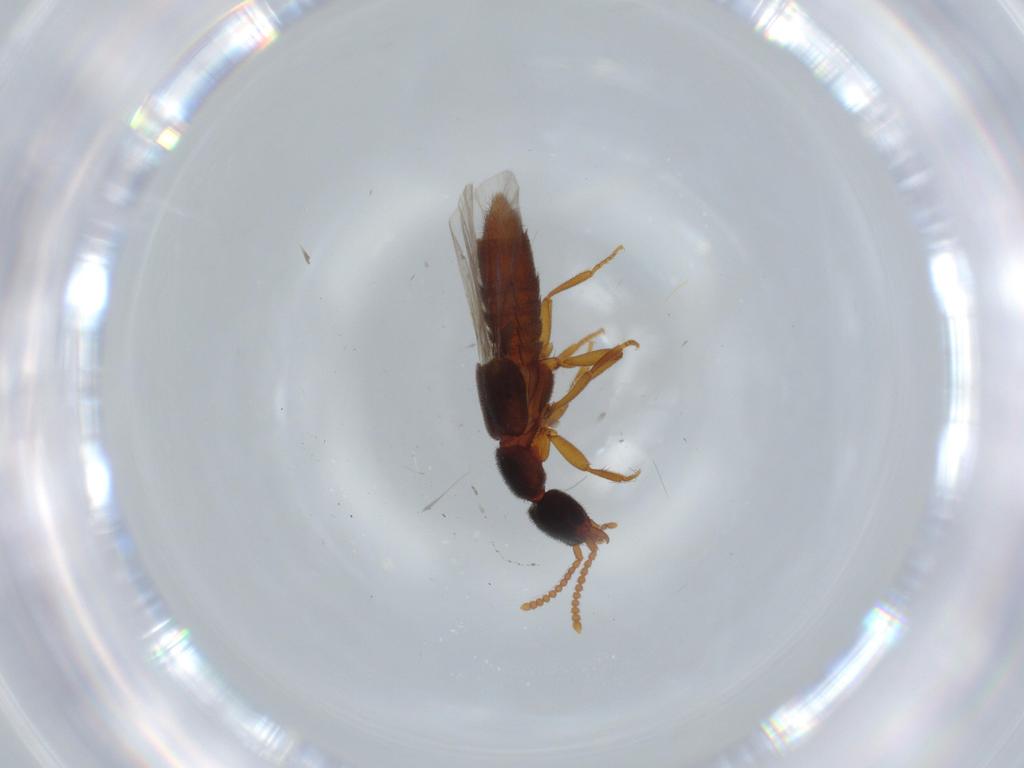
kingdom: Animalia
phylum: Arthropoda
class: Insecta
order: Coleoptera
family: Staphylinidae
